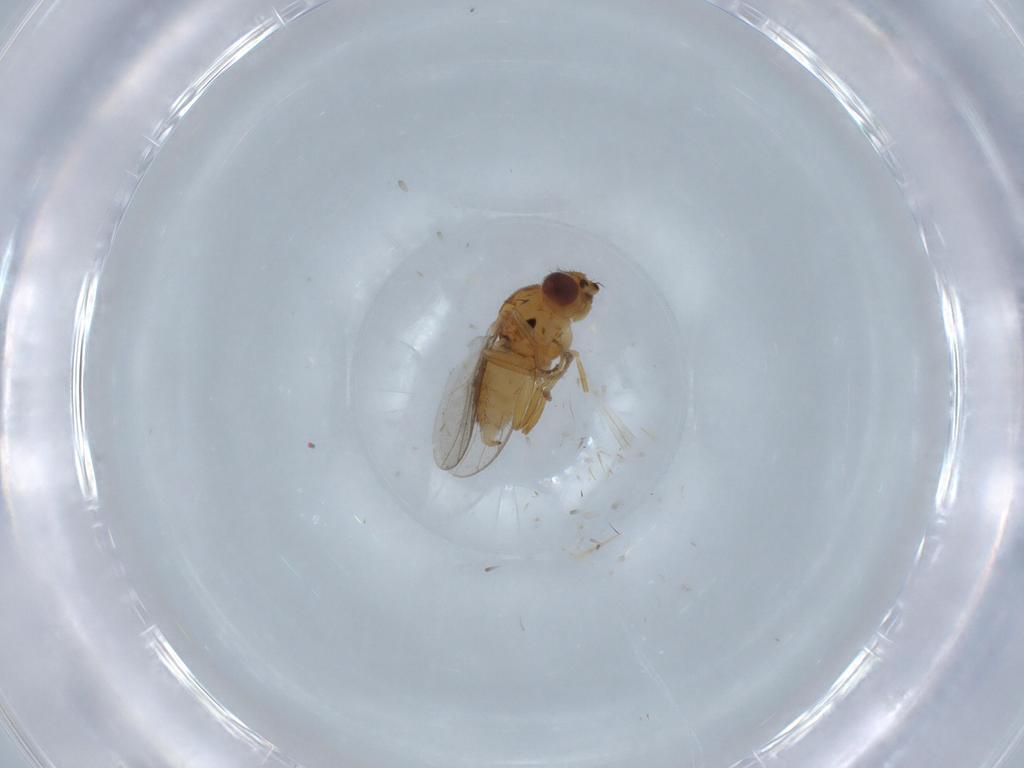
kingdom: Animalia
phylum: Arthropoda
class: Insecta
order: Diptera
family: Chloropidae
